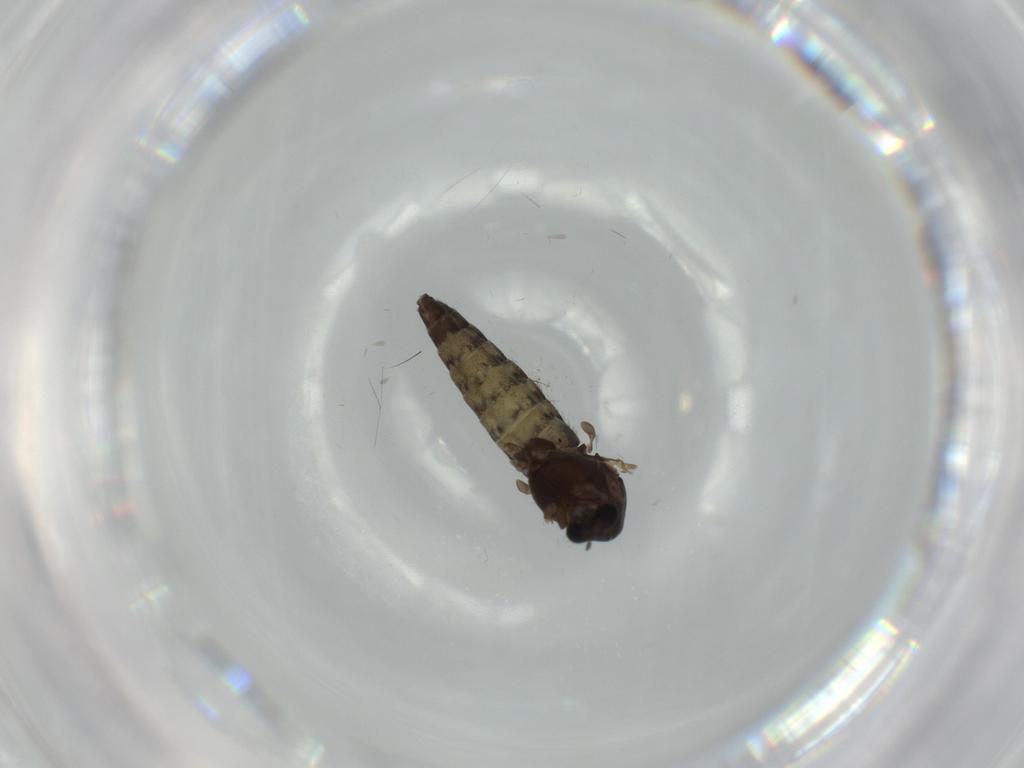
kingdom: Animalia
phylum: Arthropoda
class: Insecta
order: Diptera
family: Chironomidae
